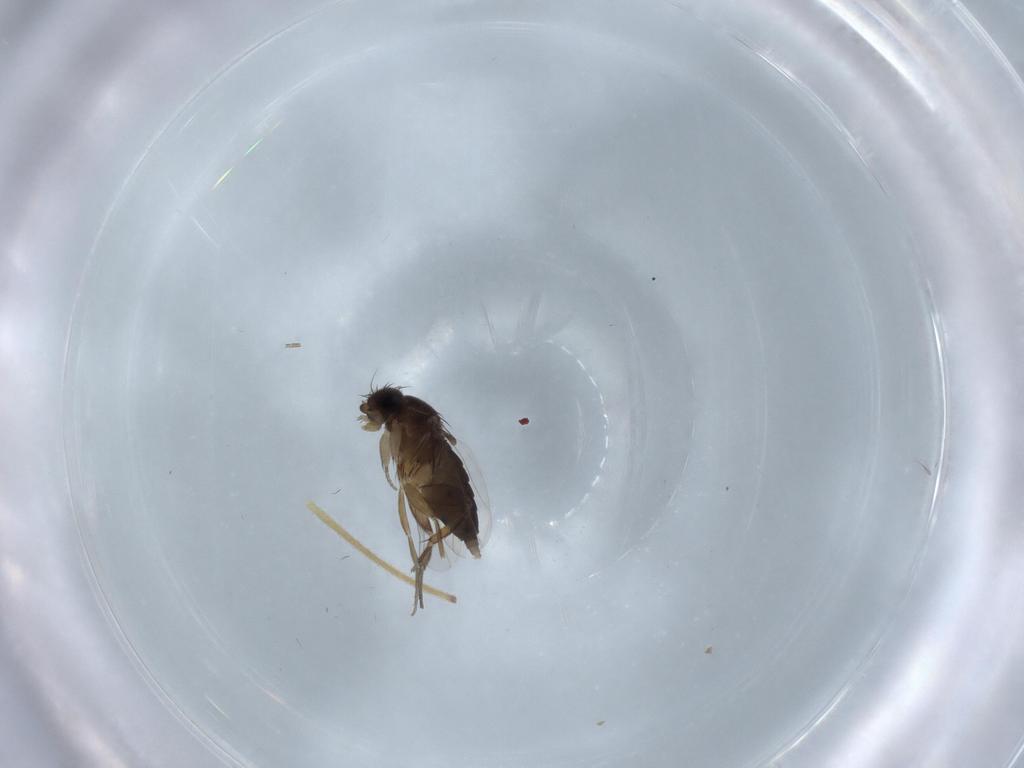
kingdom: Animalia
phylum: Arthropoda
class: Insecta
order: Diptera
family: Phoridae
